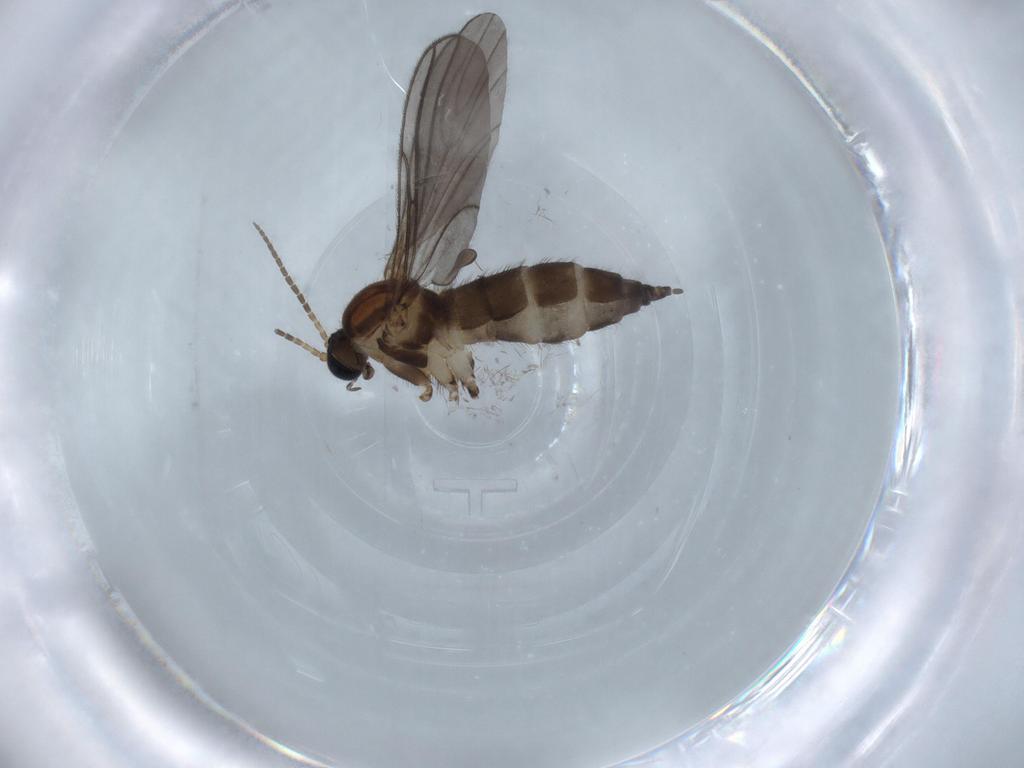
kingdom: Animalia
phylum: Arthropoda
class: Insecta
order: Diptera
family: Sciaridae
